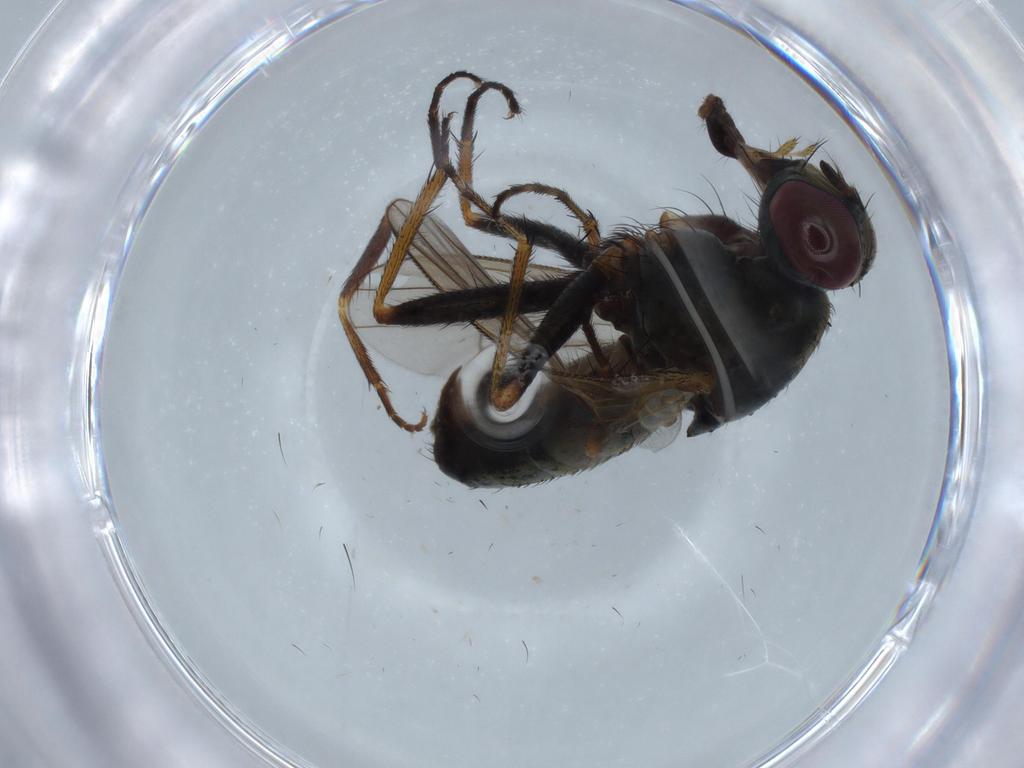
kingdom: Animalia
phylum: Arthropoda
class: Insecta
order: Diptera
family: Muscidae
